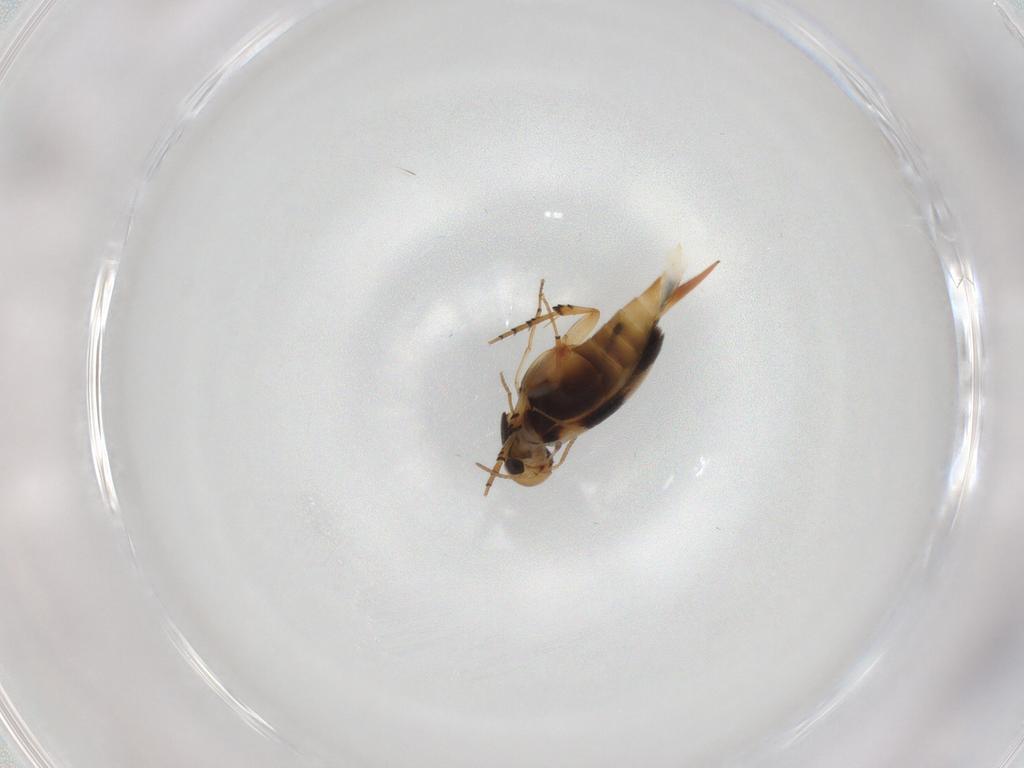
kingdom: Animalia
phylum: Arthropoda
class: Insecta
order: Coleoptera
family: Mordellidae
